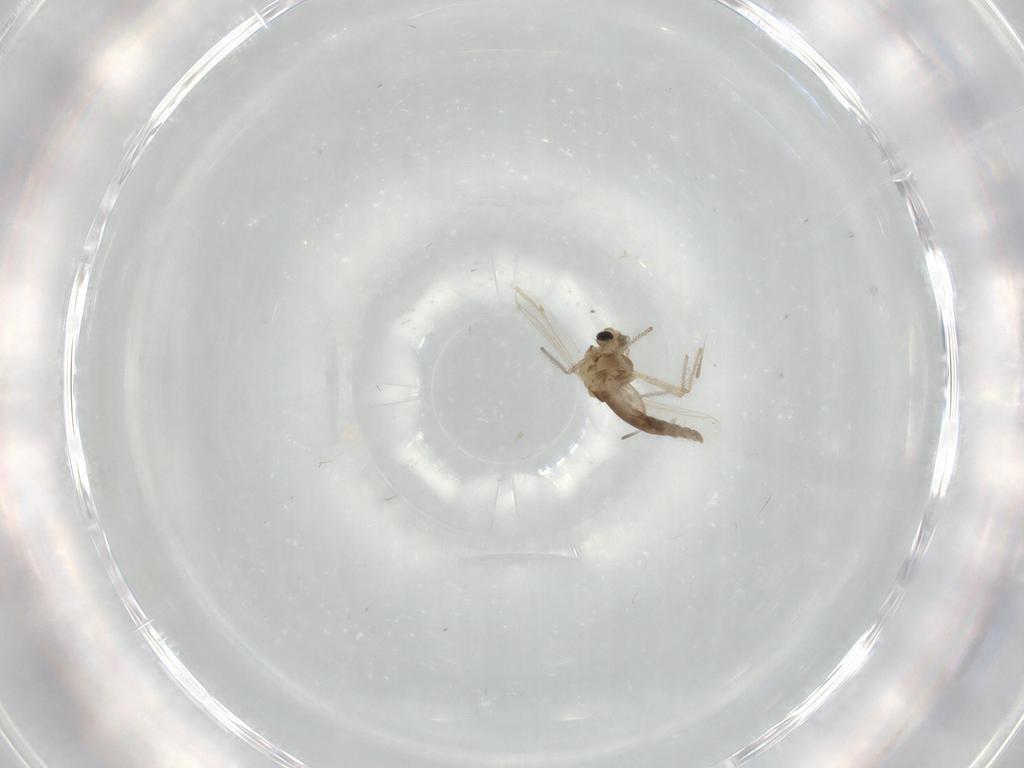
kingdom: Animalia
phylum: Arthropoda
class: Insecta
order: Diptera
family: Chironomidae
